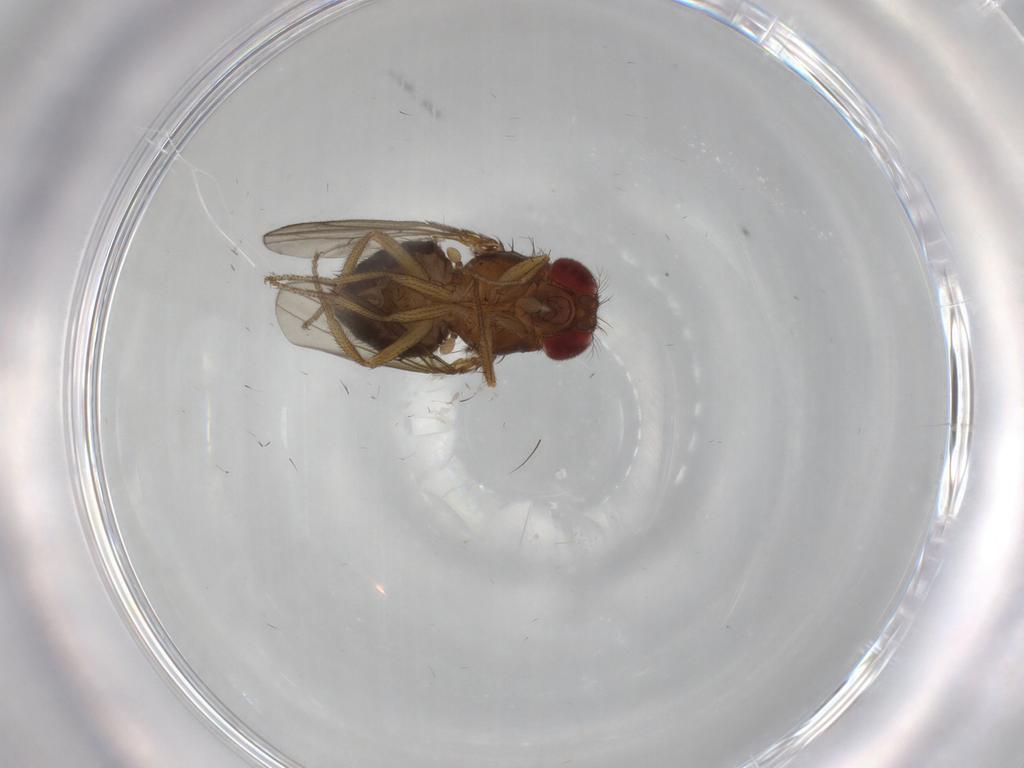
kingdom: Animalia
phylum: Arthropoda
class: Insecta
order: Diptera
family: Drosophilidae
